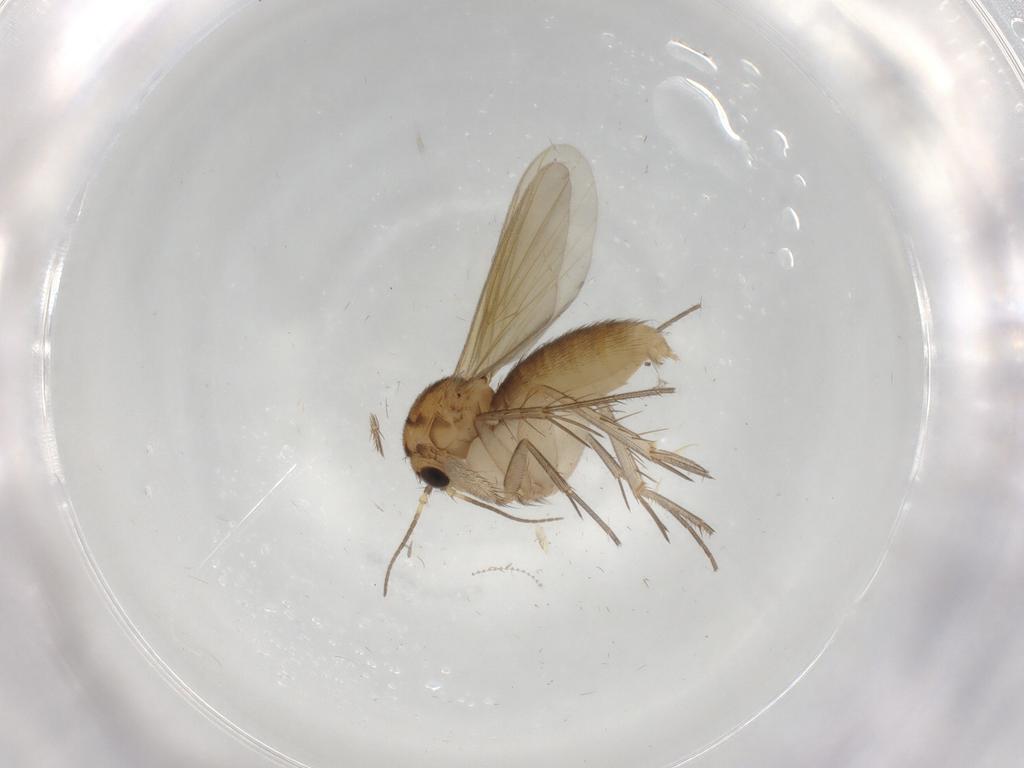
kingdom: Animalia
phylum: Arthropoda
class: Insecta
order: Diptera
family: Mycetophilidae
